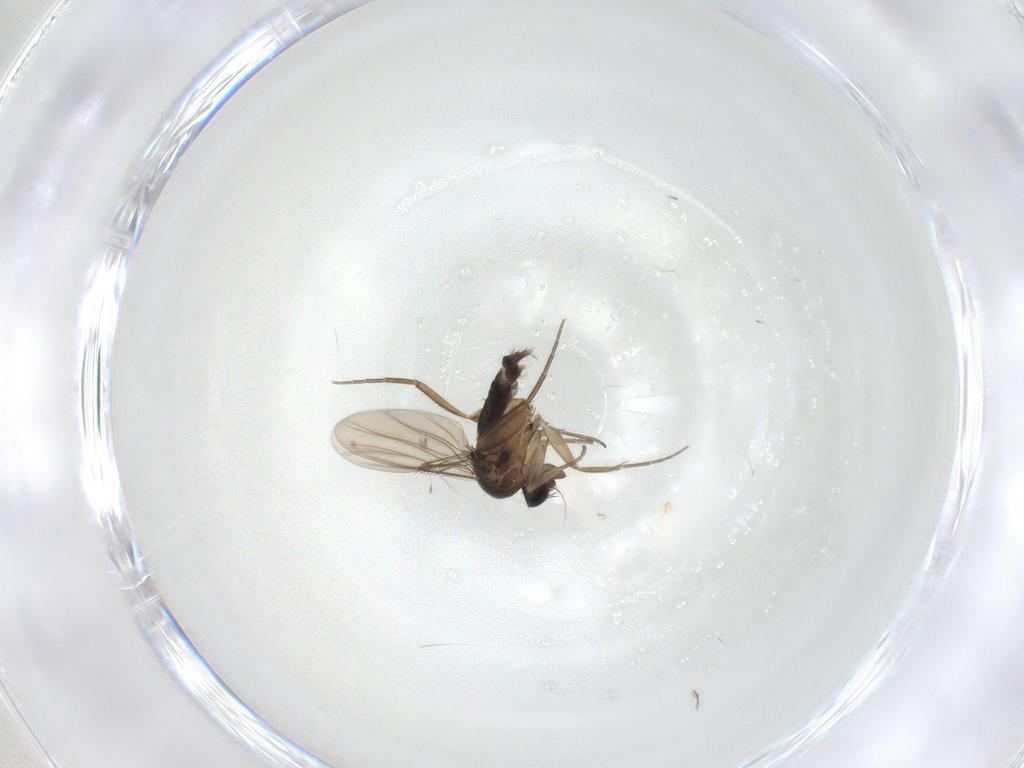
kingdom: Animalia
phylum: Arthropoda
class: Insecta
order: Diptera
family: Phoridae
